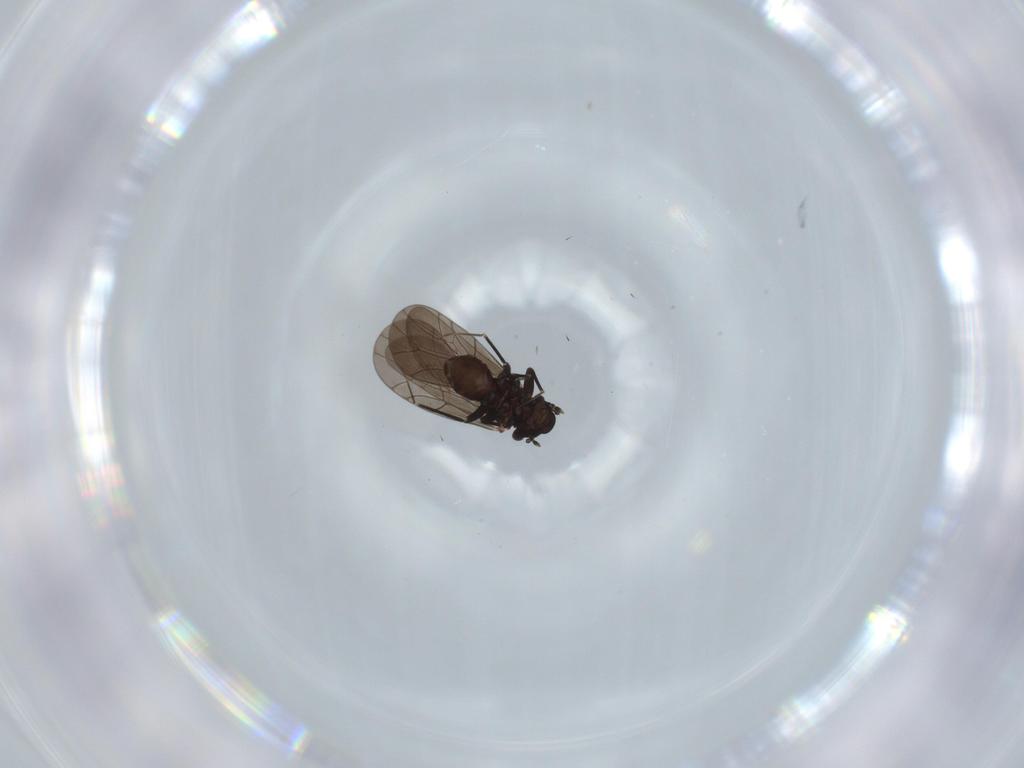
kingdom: Animalia
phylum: Arthropoda
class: Insecta
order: Psocodea
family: Lepidopsocidae
